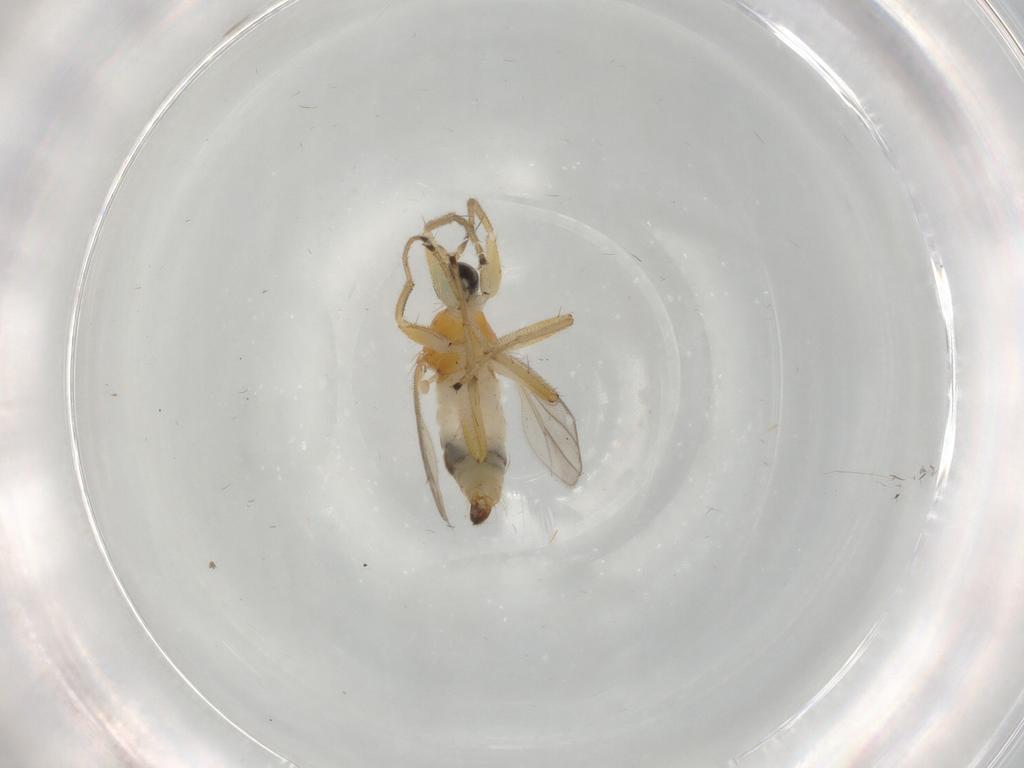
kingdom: Animalia
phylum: Arthropoda
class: Insecta
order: Diptera
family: Hybotidae
